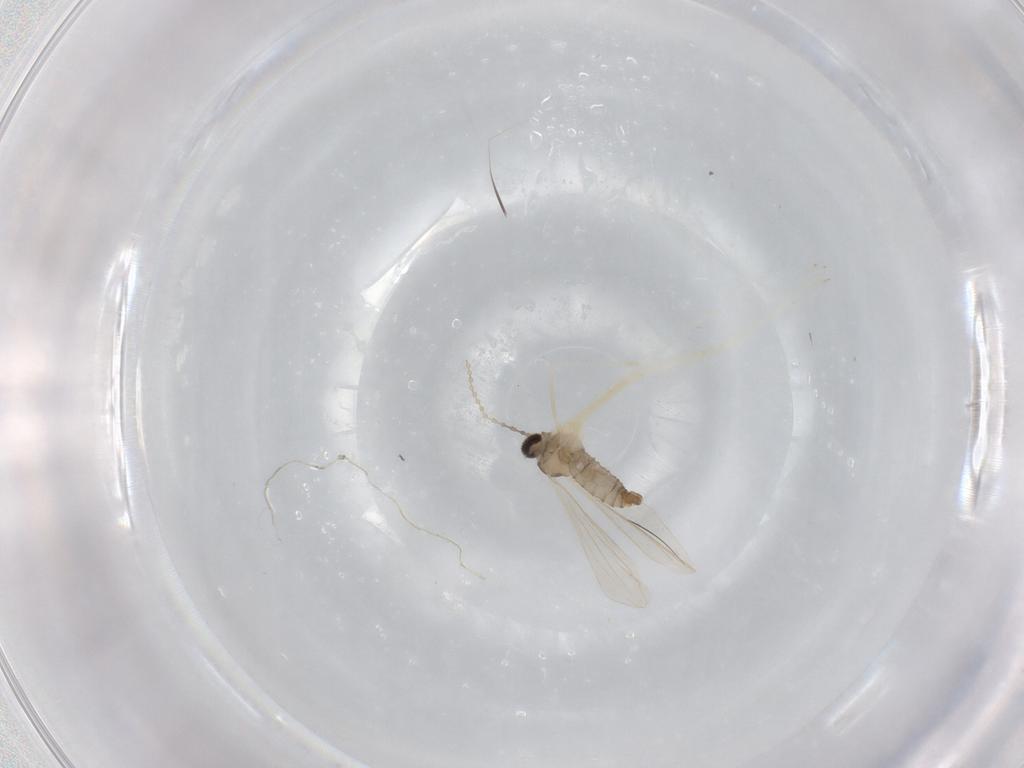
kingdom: Animalia
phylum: Arthropoda
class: Insecta
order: Diptera
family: Cecidomyiidae
